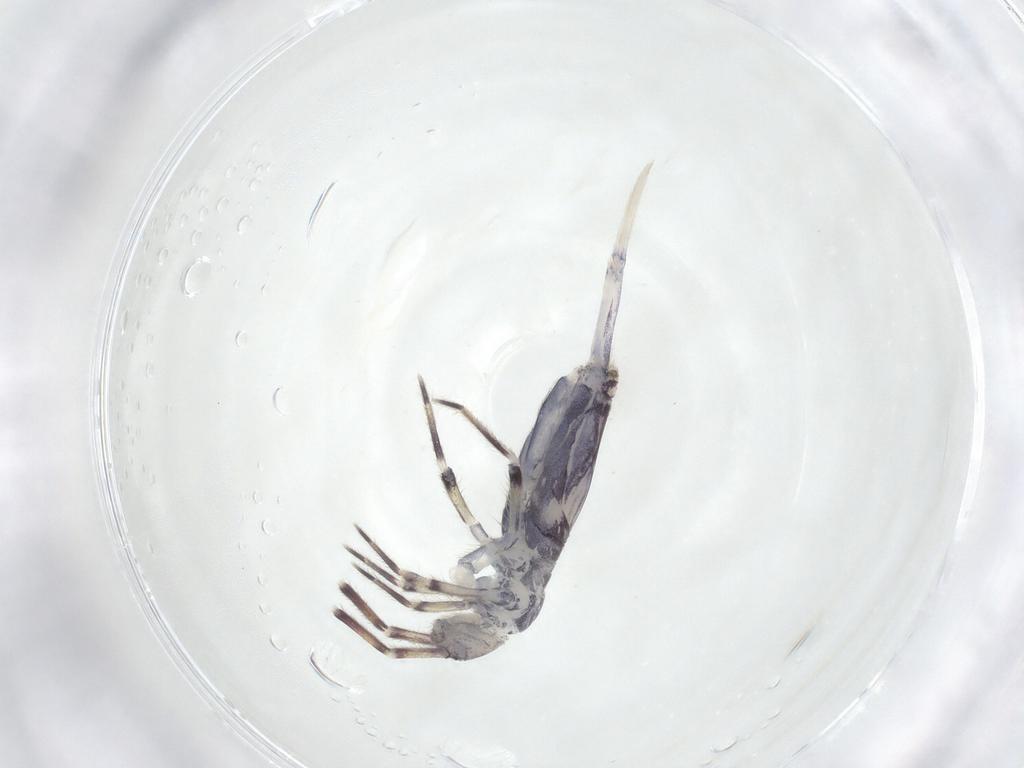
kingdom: Animalia
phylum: Arthropoda
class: Collembola
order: Entomobryomorpha
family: Entomobryidae
